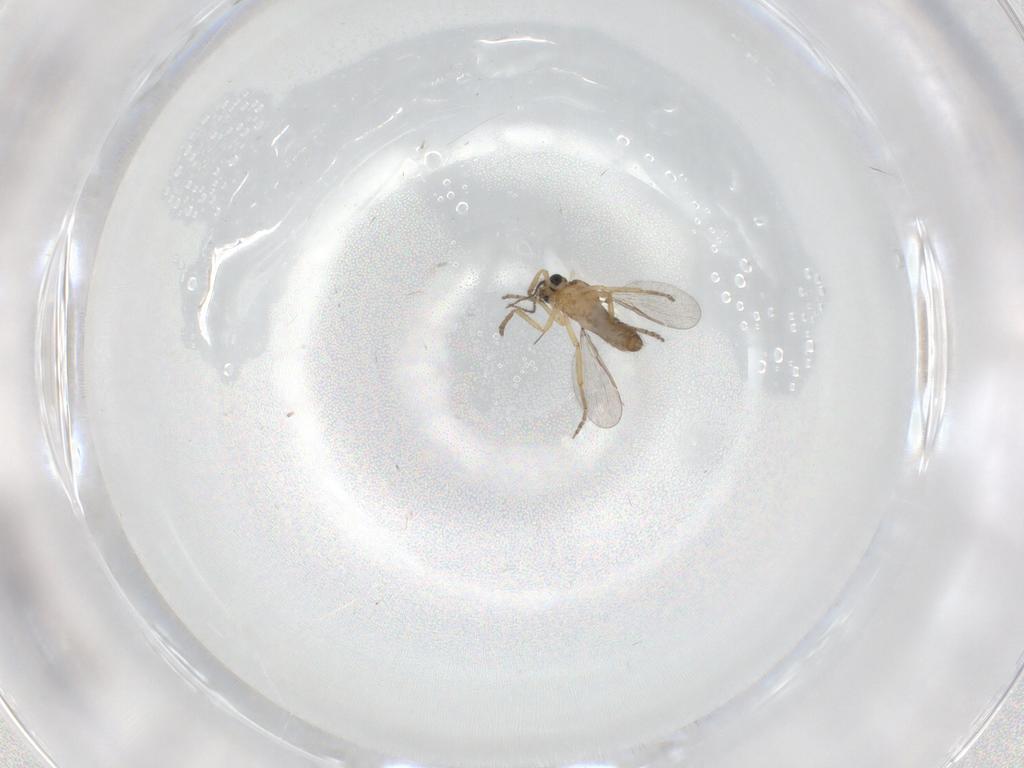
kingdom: Animalia
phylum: Arthropoda
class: Insecta
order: Diptera
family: Ceratopogonidae
